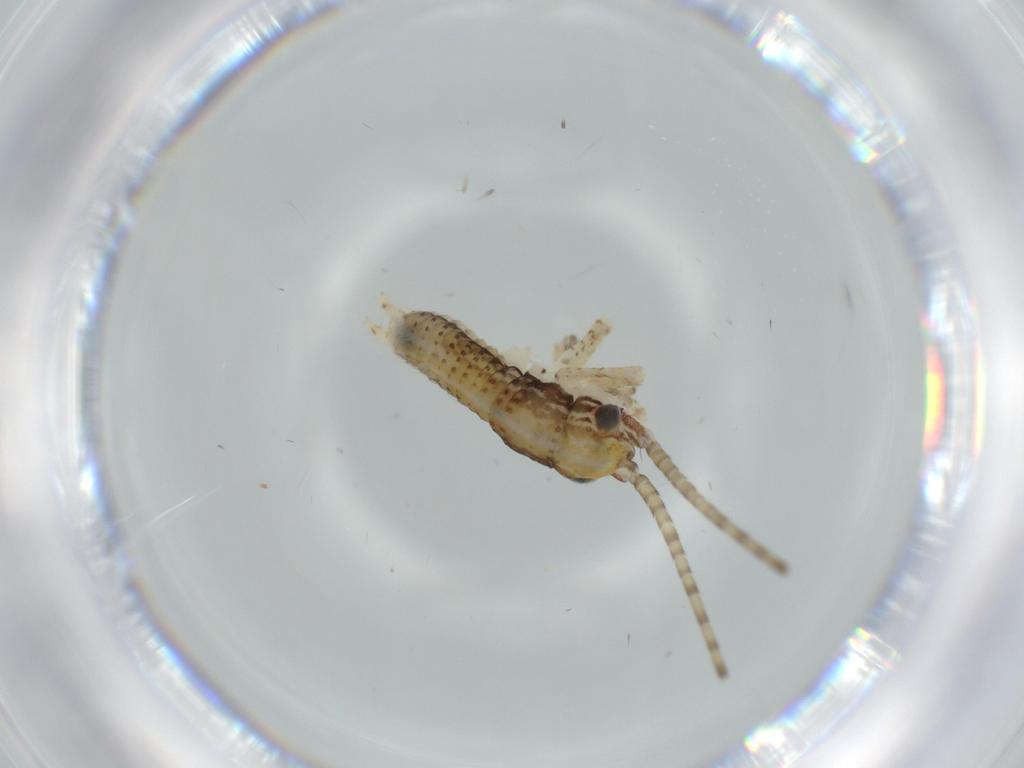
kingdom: Animalia
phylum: Arthropoda
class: Insecta
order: Orthoptera
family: Gryllidae
